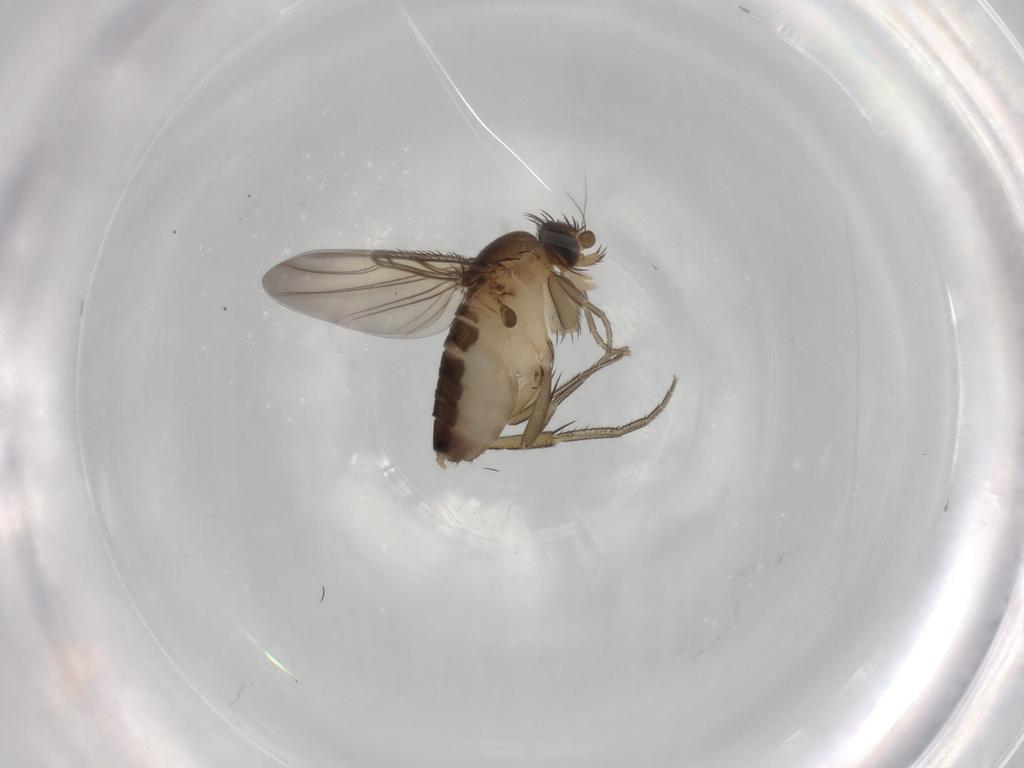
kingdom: Animalia
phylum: Arthropoda
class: Insecta
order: Diptera
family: Phoridae
